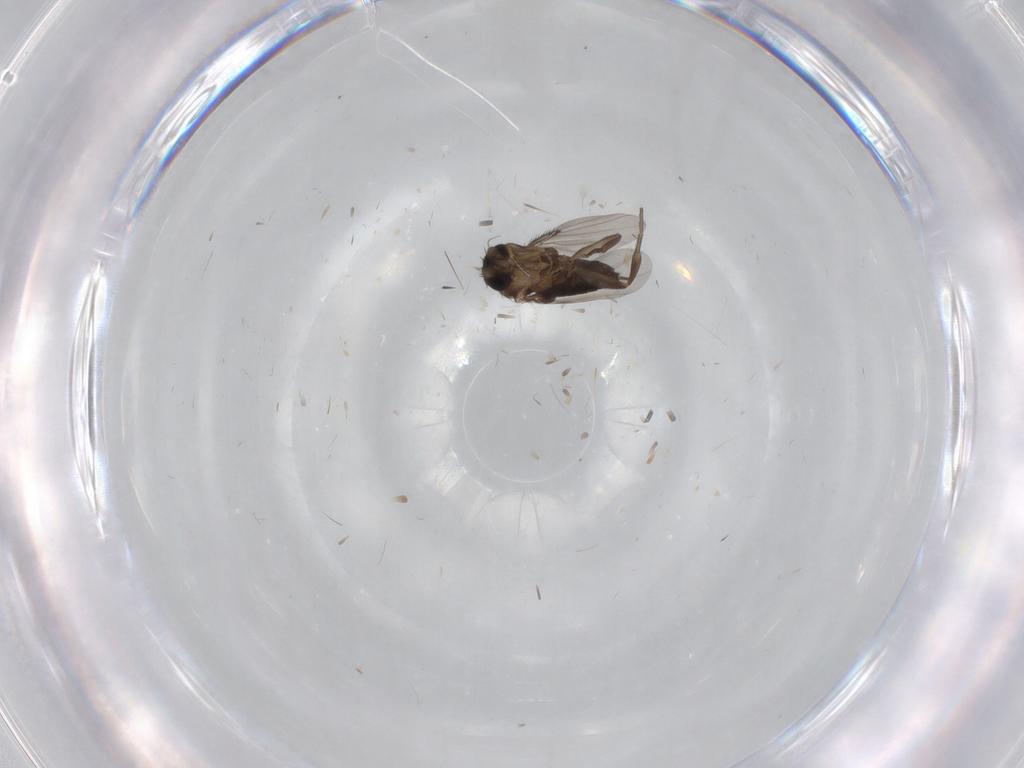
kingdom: Animalia
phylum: Arthropoda
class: Insecta
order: Diptera
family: Phoridae
